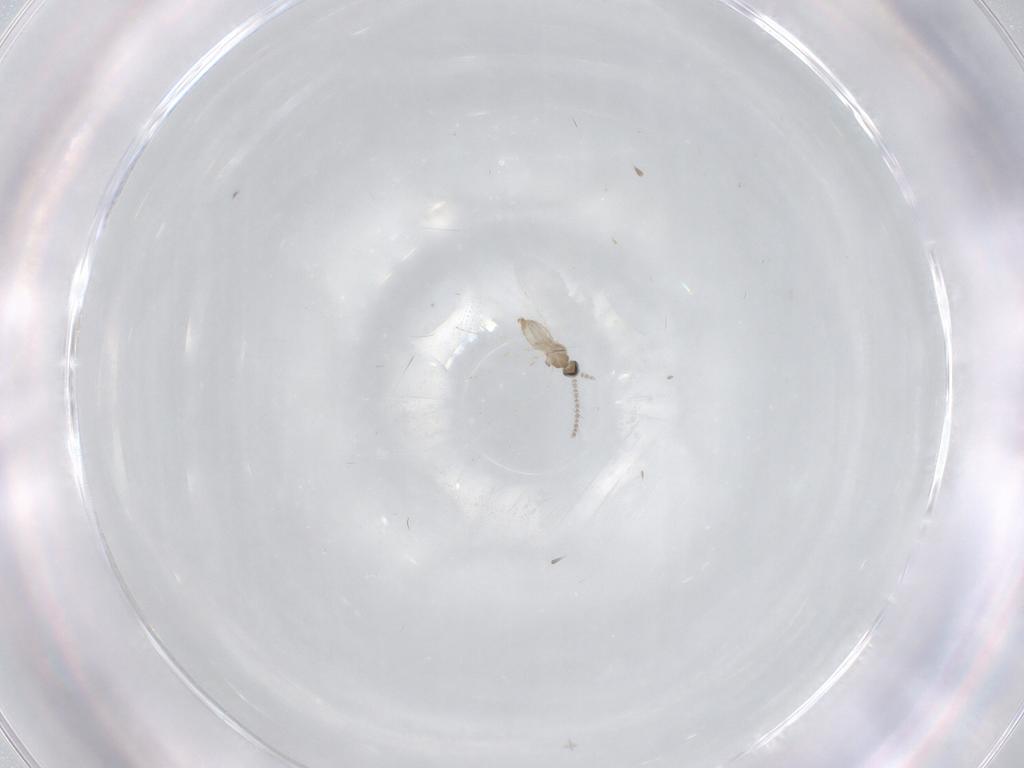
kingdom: Animalia
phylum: Arthropoda
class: Insecta
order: Diptera
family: Cecidomyiidae
